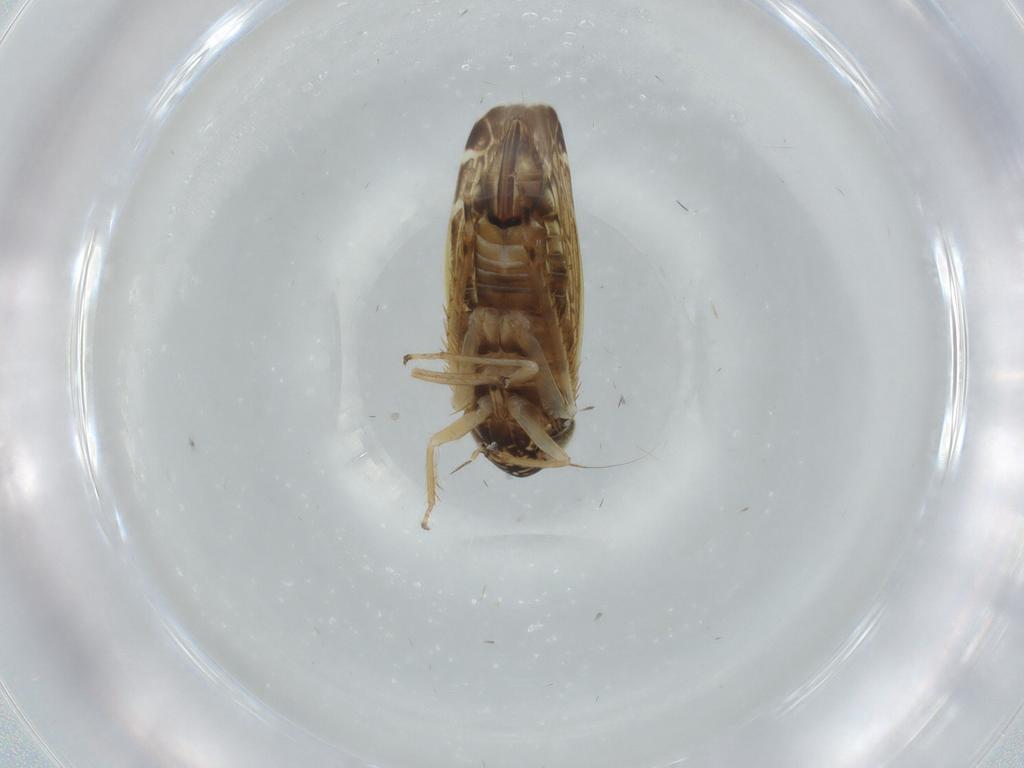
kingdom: Animalia
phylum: Arthropoda
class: Insecta
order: Hemiptera
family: Cicadellidae
